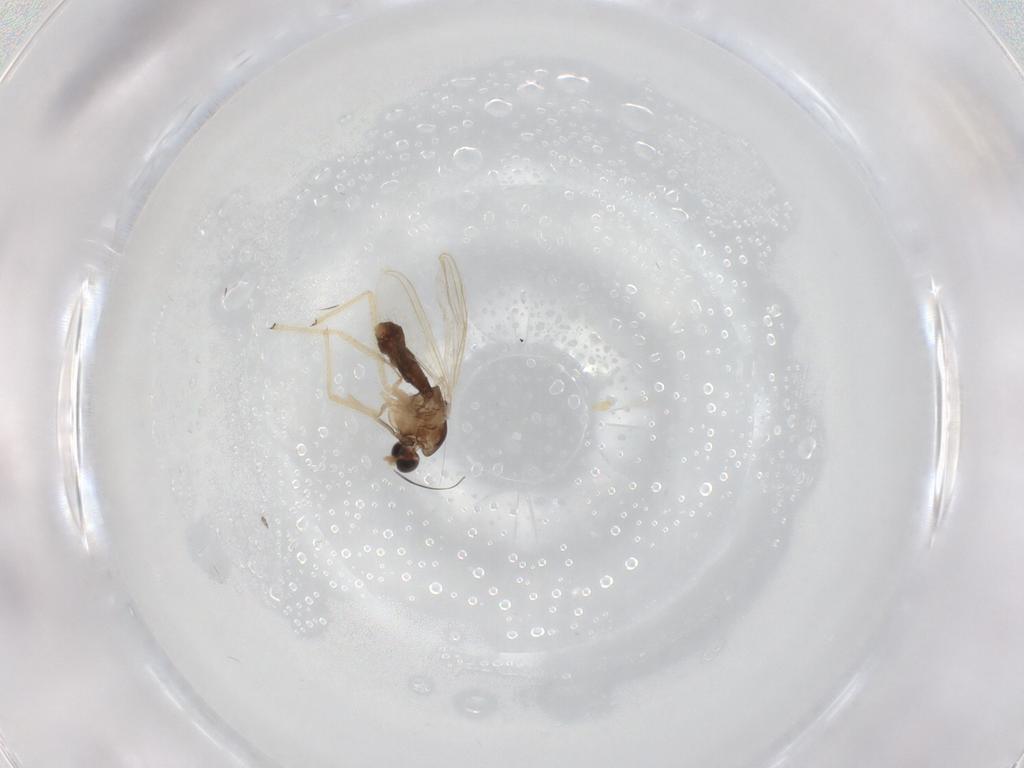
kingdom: Animalia
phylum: Arthropoda
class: Insecta
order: Diptera
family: Chironomidae
